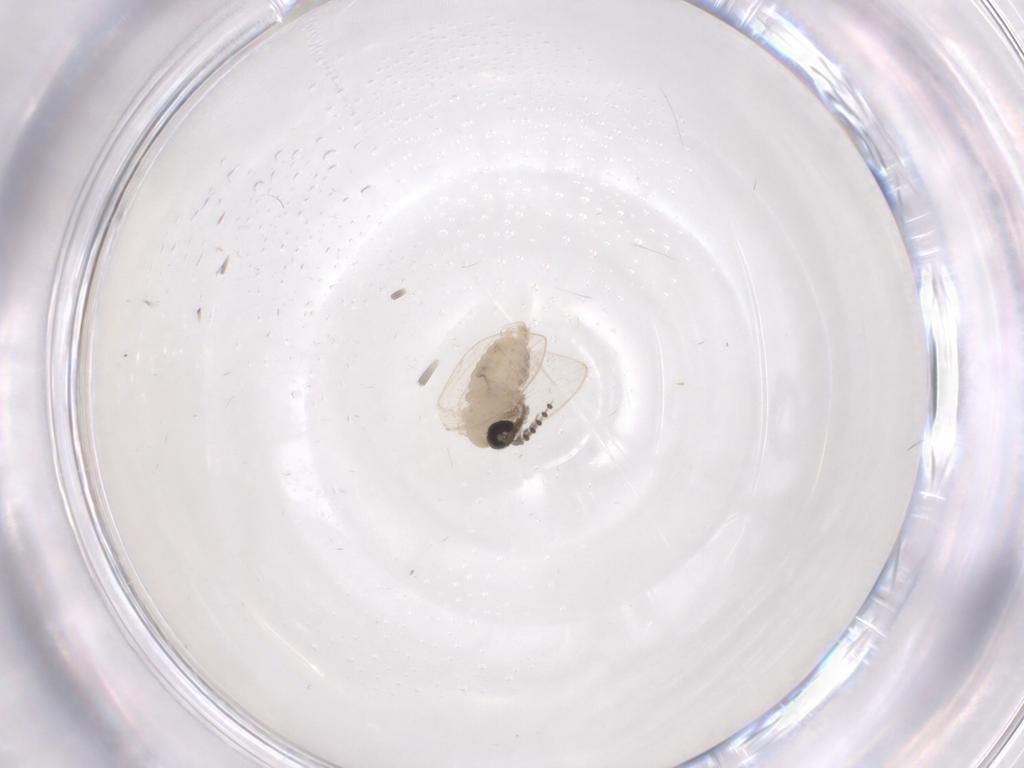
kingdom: Animalia
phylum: Arthropoda
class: Insecta
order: Diptera
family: Psychodidae
